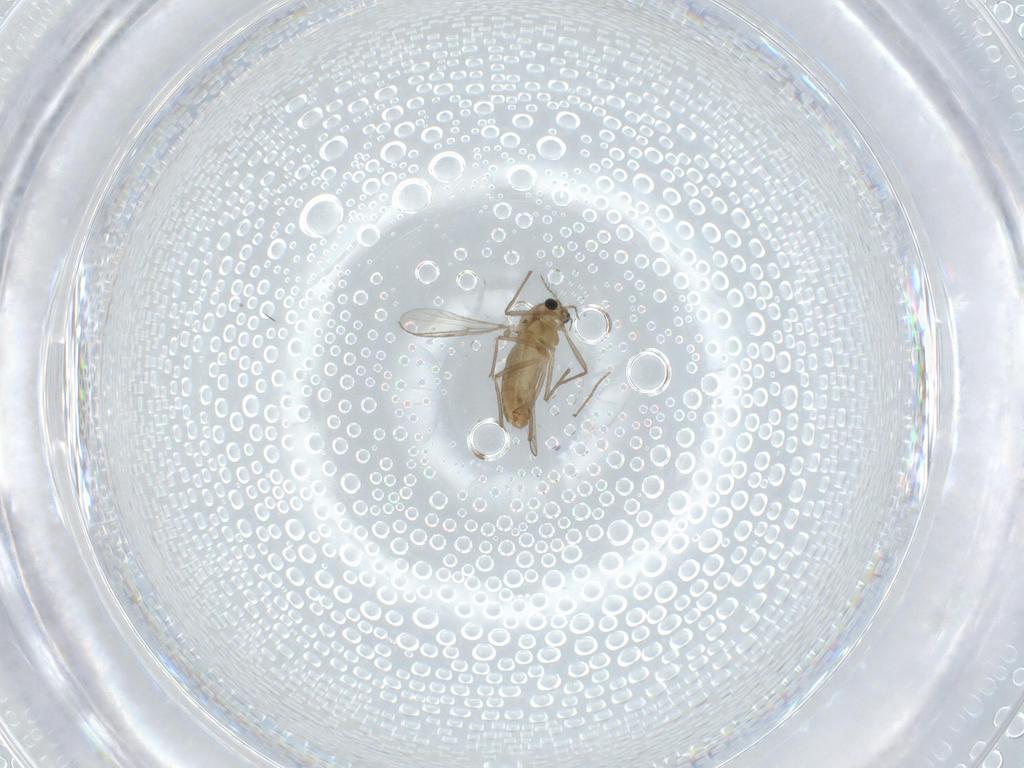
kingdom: Animalia
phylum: Arthropoda
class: Insecta
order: Diptera
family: Chironomidae
